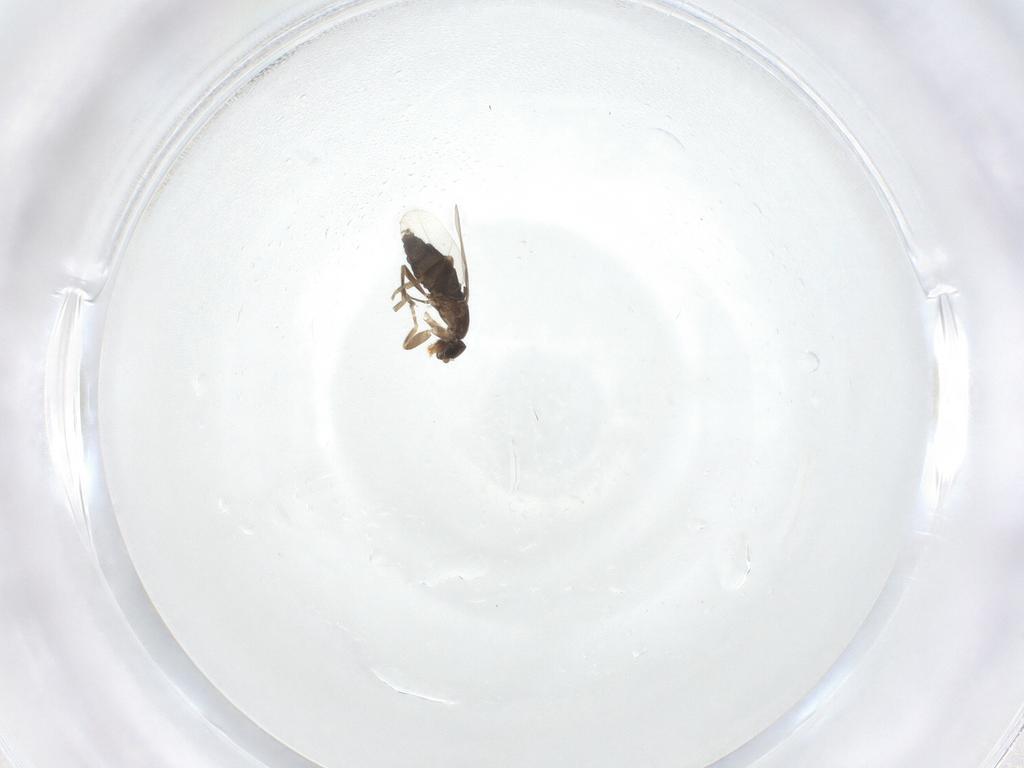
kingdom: Animalia
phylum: Arthropoda
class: Insecta
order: Diptera
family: Phoridae
